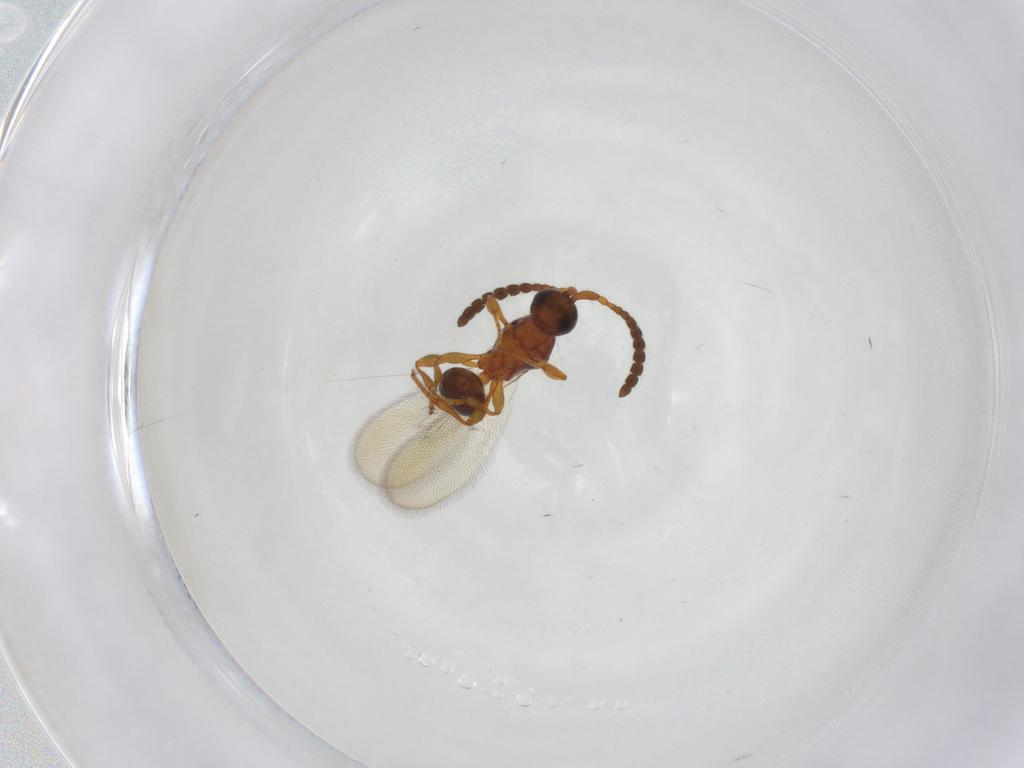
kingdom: Animalia
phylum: Arthropoda
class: Insecta
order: Hymenoptera
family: Diapriidae
